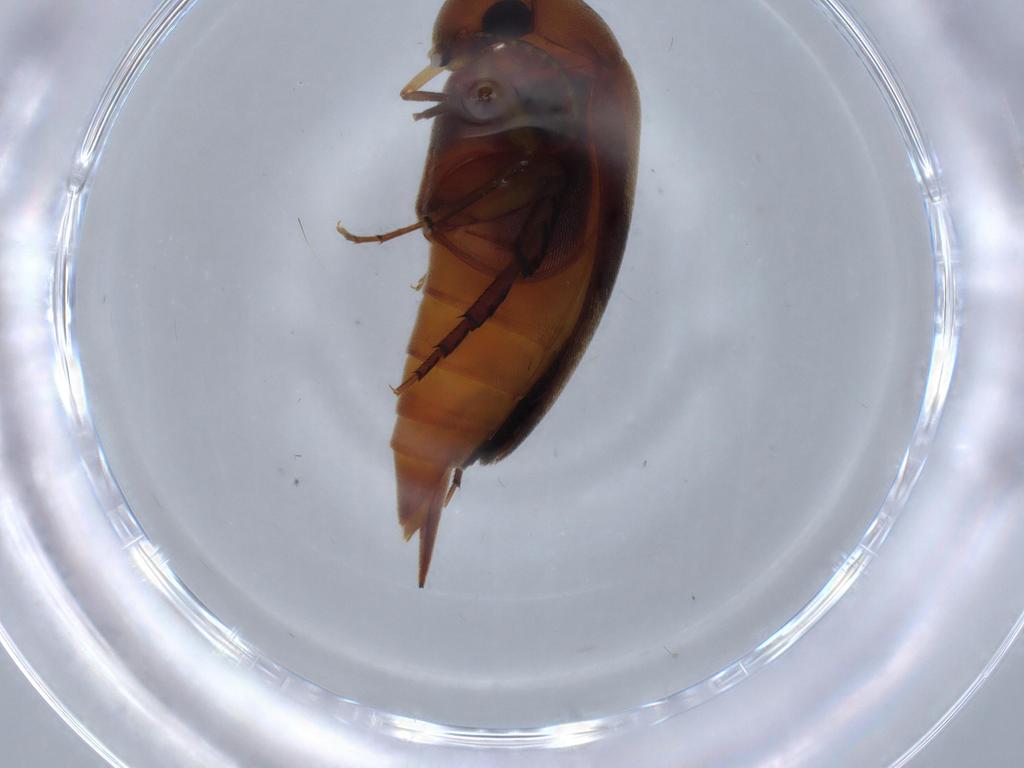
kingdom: Animalia
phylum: Arthropoda
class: Insecta
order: Coleoptera
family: Mordellidae
